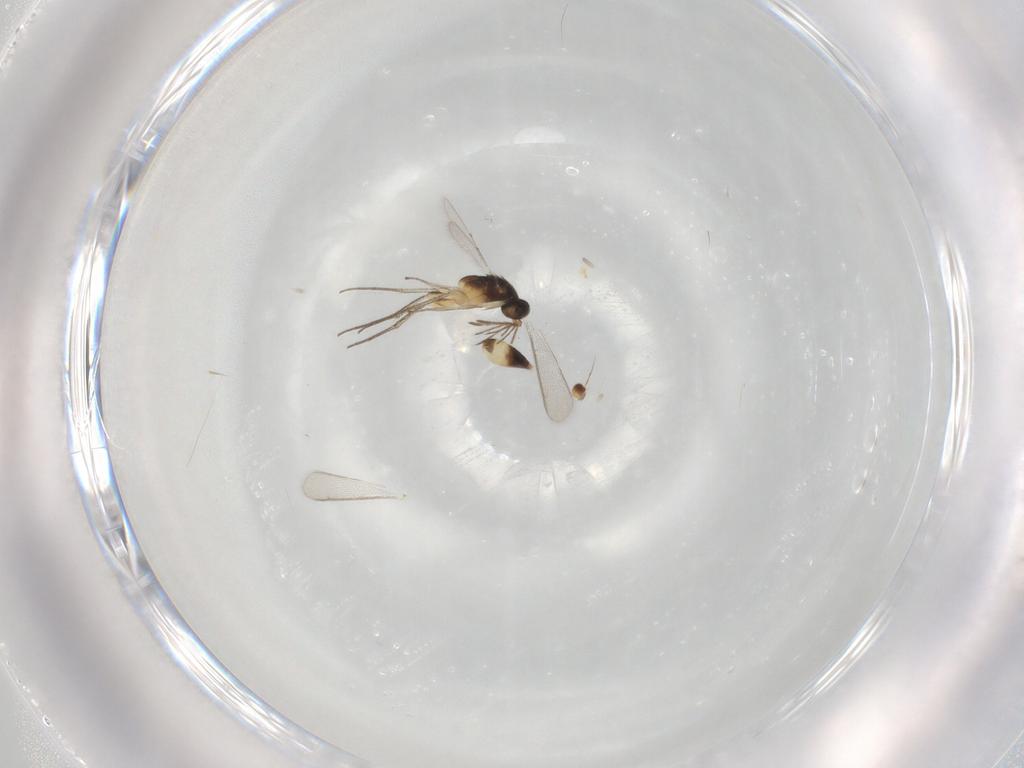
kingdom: Animalia
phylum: Arthropoda
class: Insecta
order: Hymenoptera
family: Eulophidae
